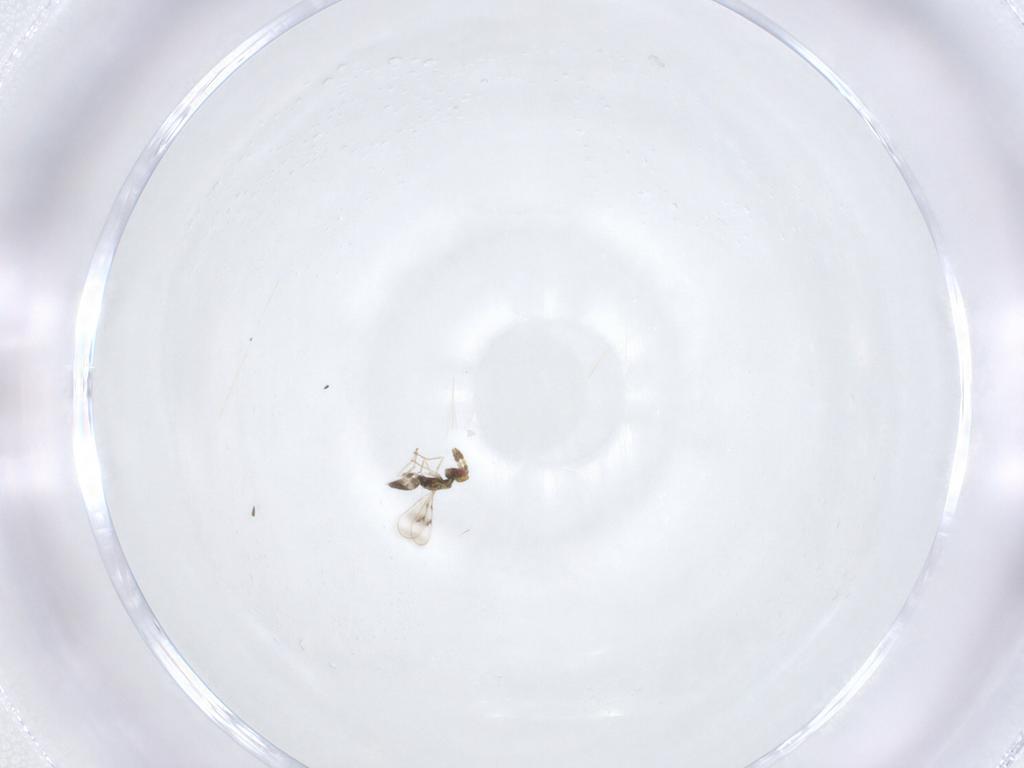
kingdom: Animalia
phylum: Arthropoda
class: Insecta
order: Hymenoptera
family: Eulophidae
